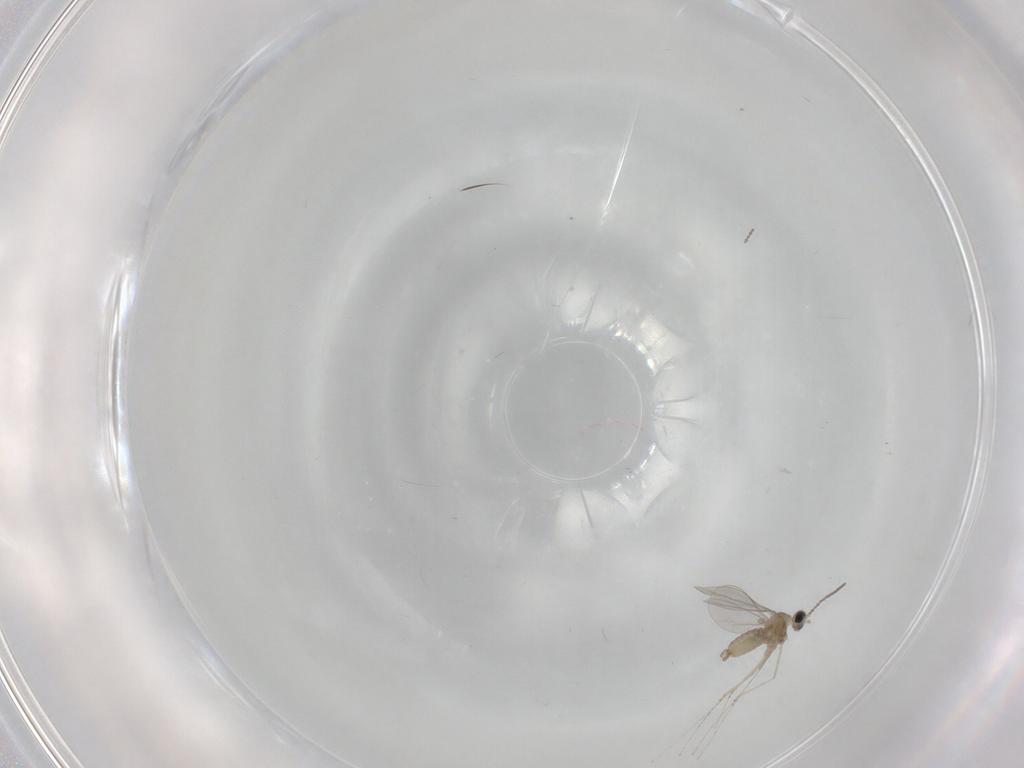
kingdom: Animalia
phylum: Arthropoda
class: Insecta
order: Diptera
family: Cecidomyiidae
